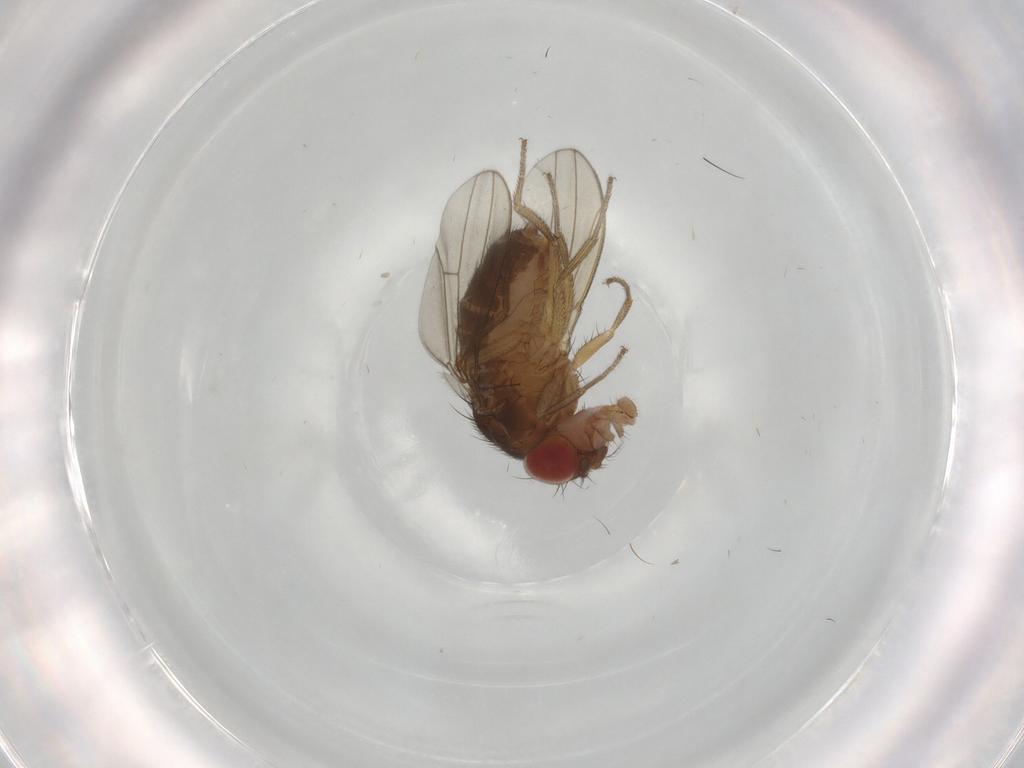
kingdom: Animalia
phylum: Arthropoda
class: Insecta
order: Diptera
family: Drosophilidae
